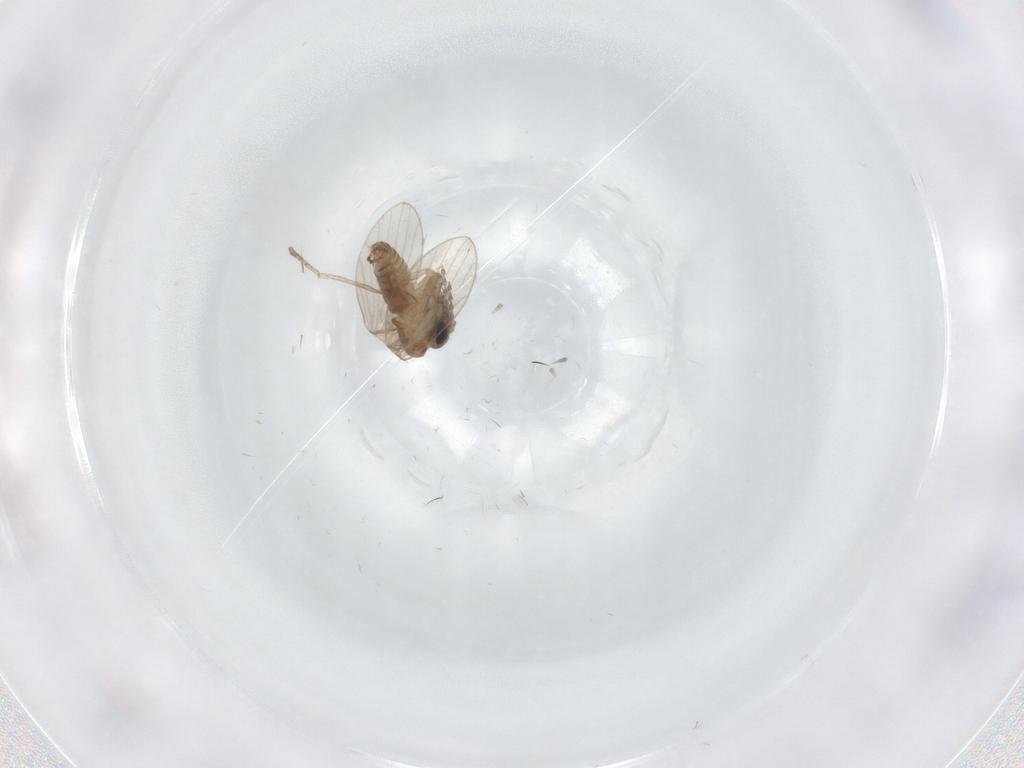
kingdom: Animalia
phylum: Arthropoda
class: Insecta
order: Diptera
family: Psychodidae
